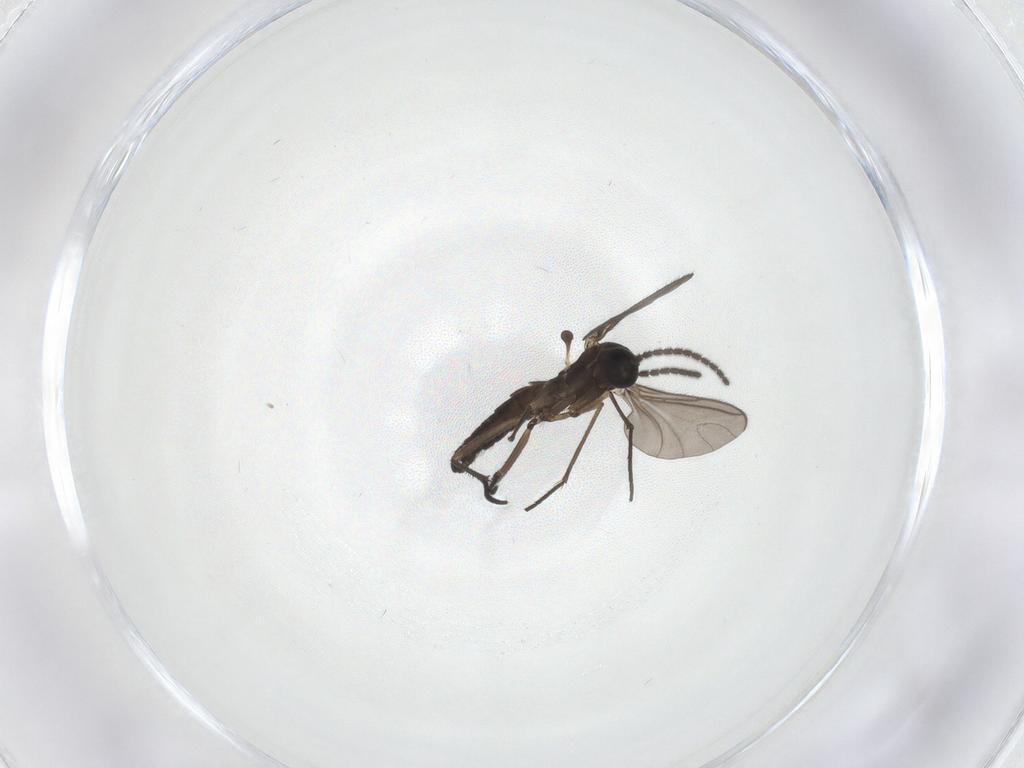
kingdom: Animalia
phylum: Arthropoda
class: Insecta
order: Diptera
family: Sciaridae
